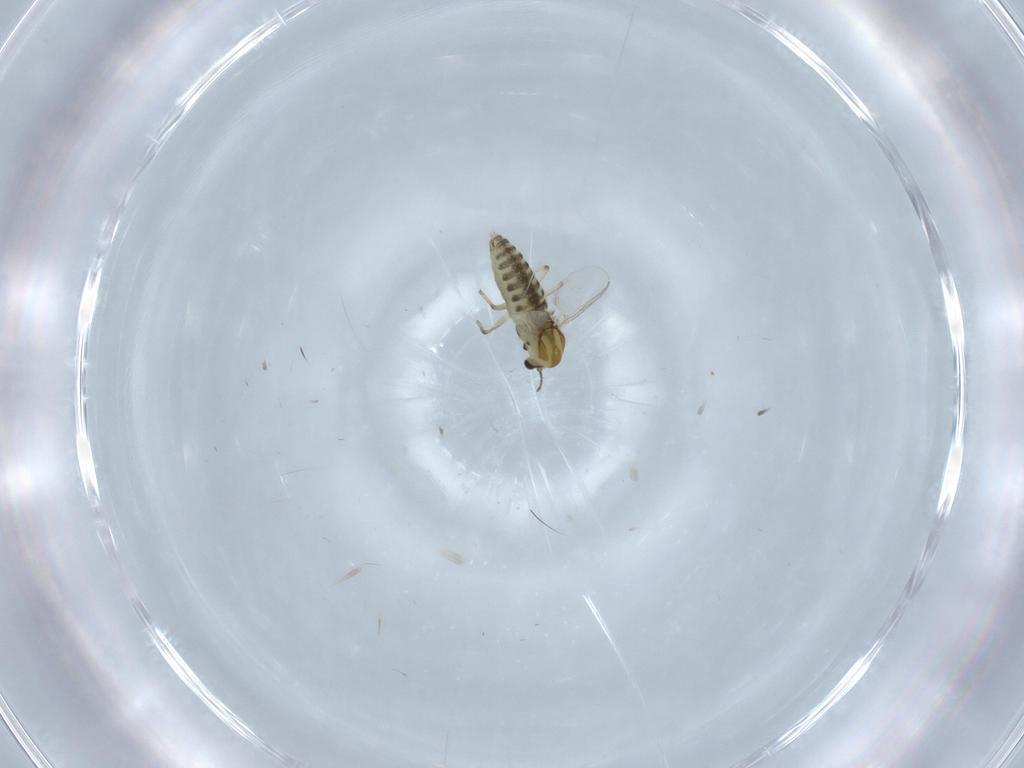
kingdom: Animalia
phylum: Arthropoda
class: Insecta
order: Diptera
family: Chironomidae
